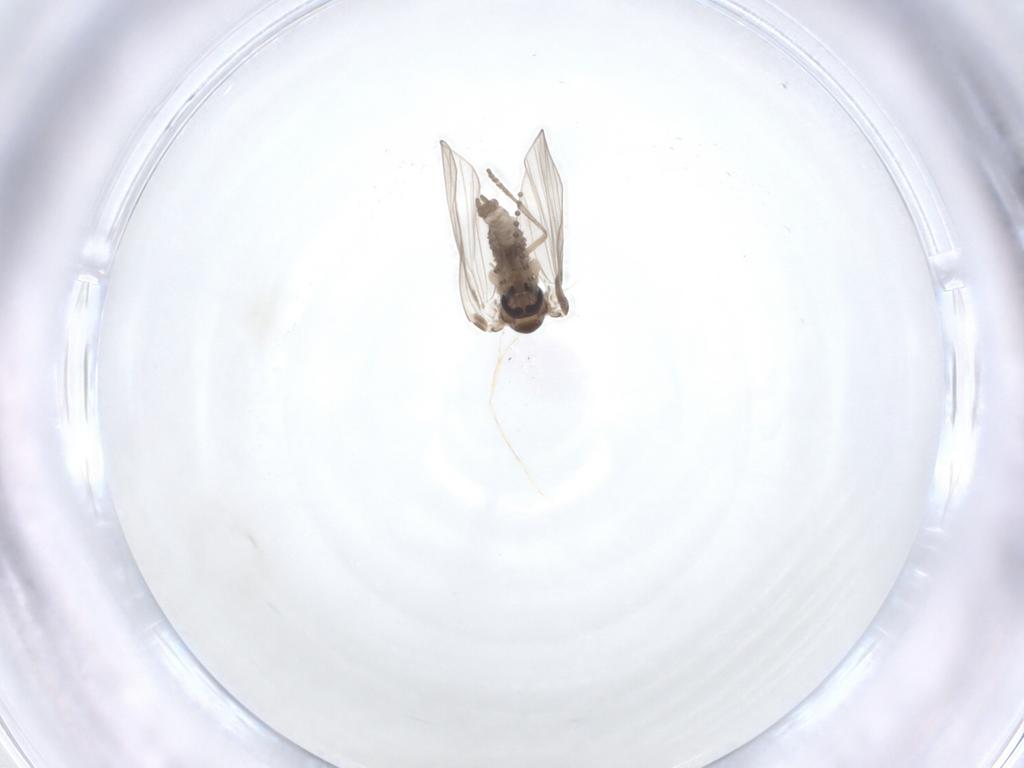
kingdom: Animalia
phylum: Arthropoda
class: Insecta
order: Diptera
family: Psychodidae
